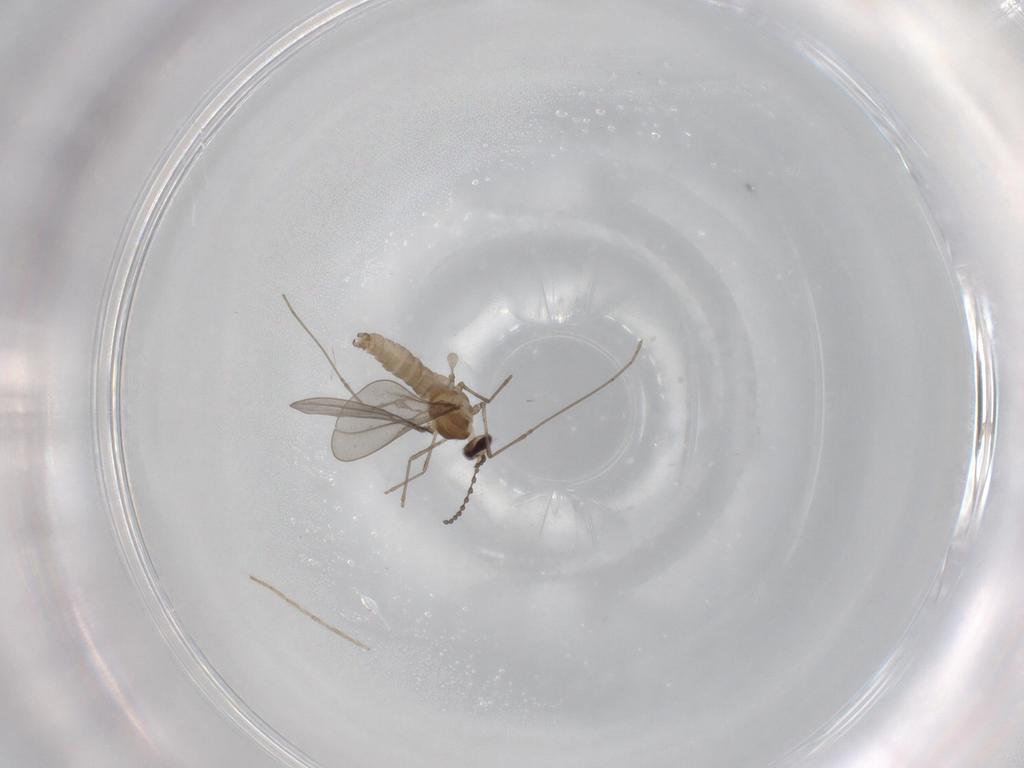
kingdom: Animalia
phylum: Arthropoda
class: Insecta
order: Diptera
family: Cecidomyiidae
